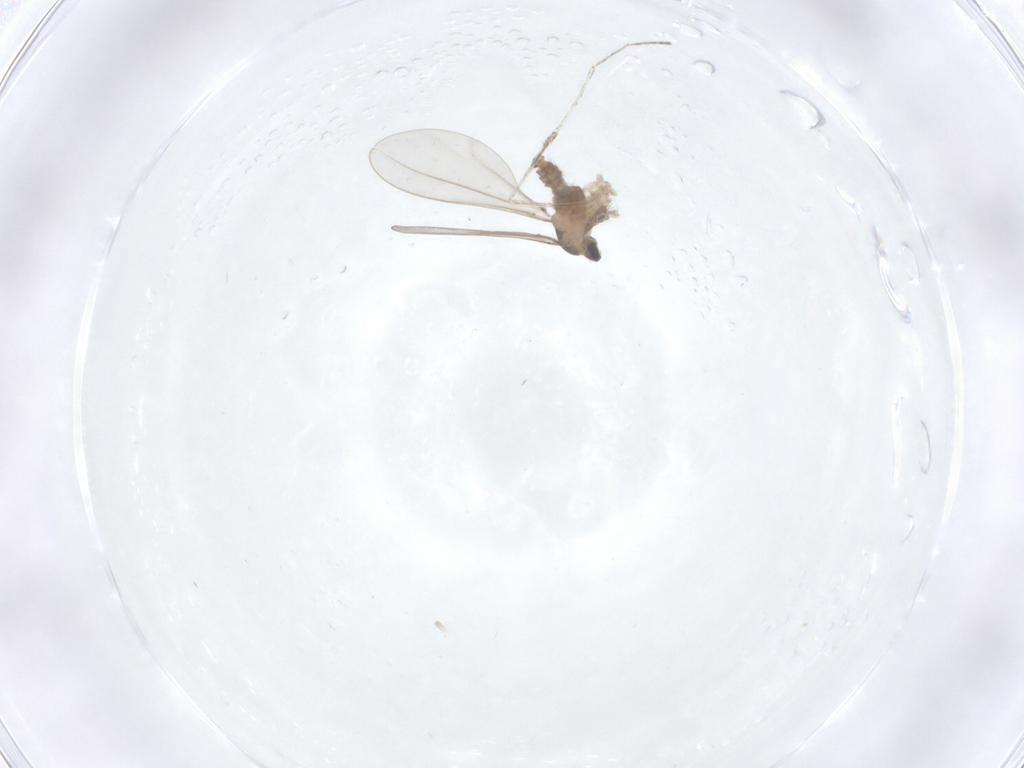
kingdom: Animalia
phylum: Arthropoda
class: Insecta
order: Diptera
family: Cecidomyiidae
